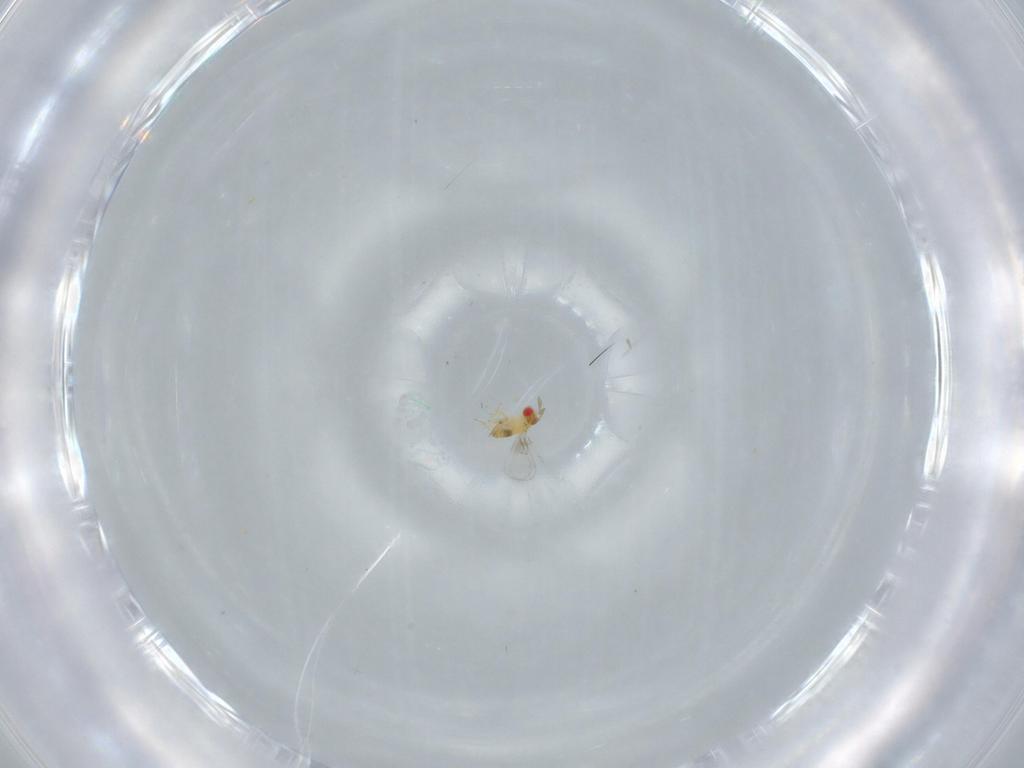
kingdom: Animalia
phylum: Arthropoda
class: Insecta
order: Hymenoptera
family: Trichogrammatidae
